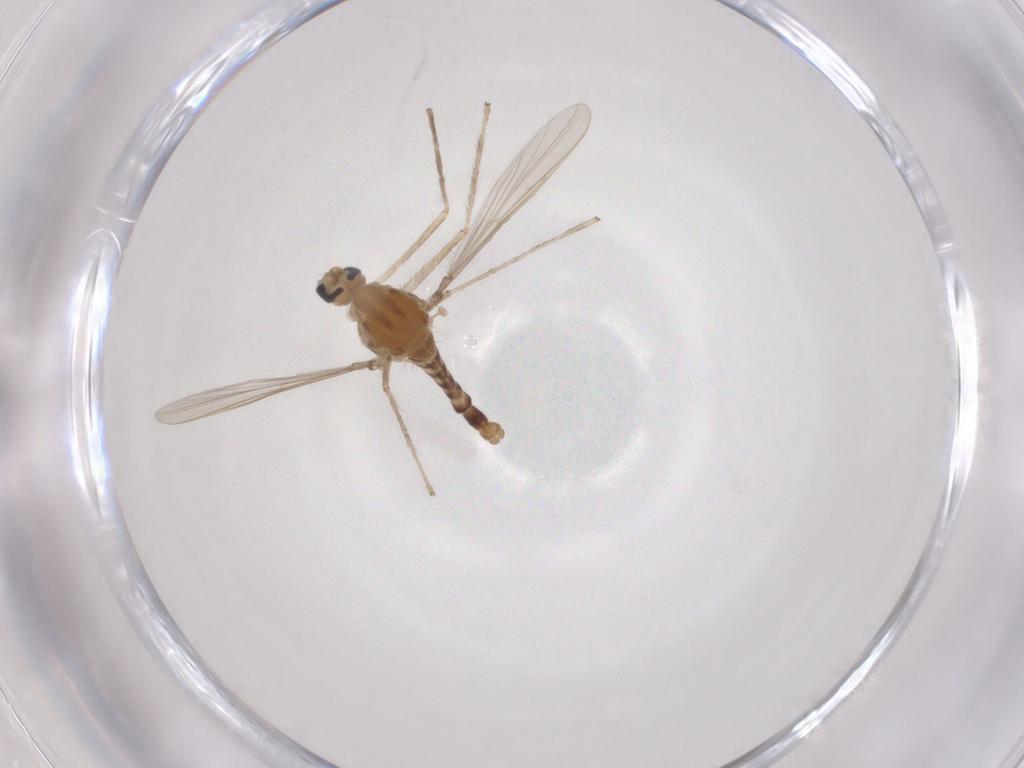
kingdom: Animalia
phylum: Arthropoda
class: Insecta
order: Diptera
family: Chironomidae
